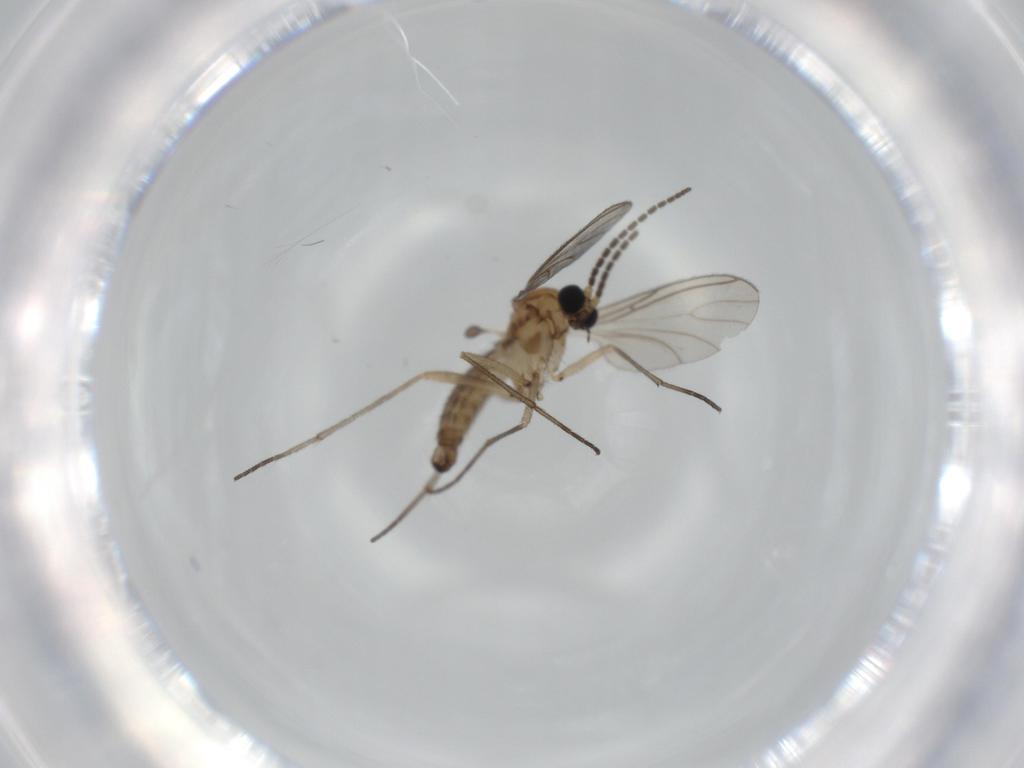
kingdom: Animalia
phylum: Arthropoda
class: Insecta
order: Diptera
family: Sciaridae
